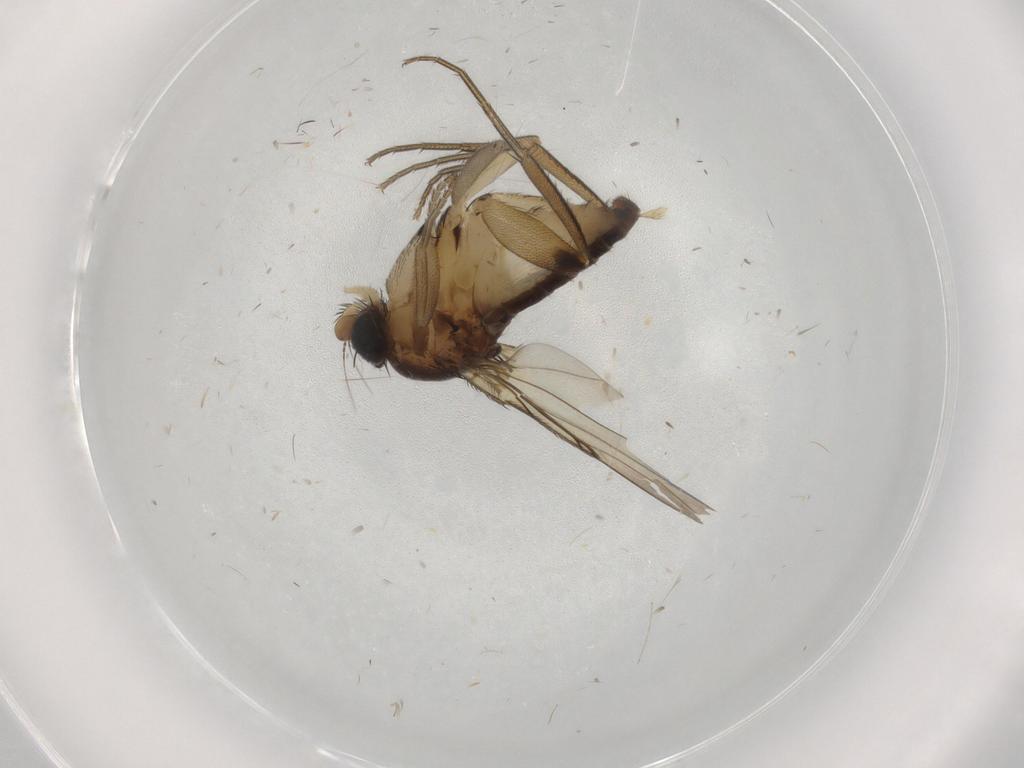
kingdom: Animalia
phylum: Arthropoda
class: Insecta
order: Diptera
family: Phoridae
